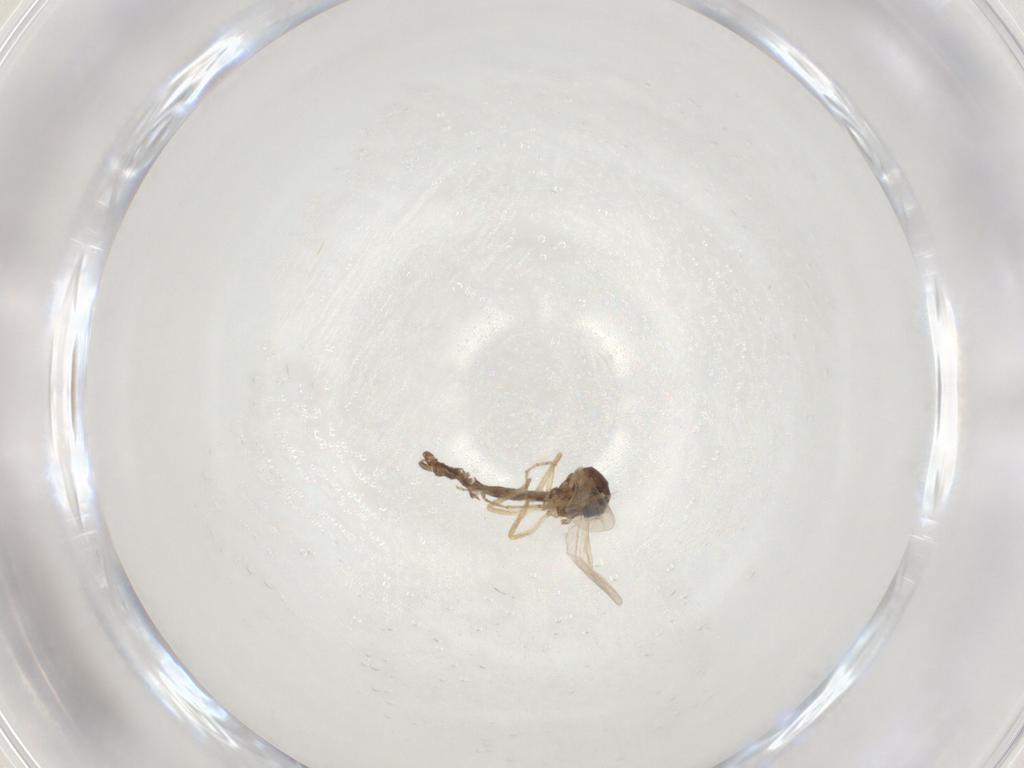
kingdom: Animalia
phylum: Arthropoda
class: Insecta
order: Diptera
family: Ceratopogonidae
